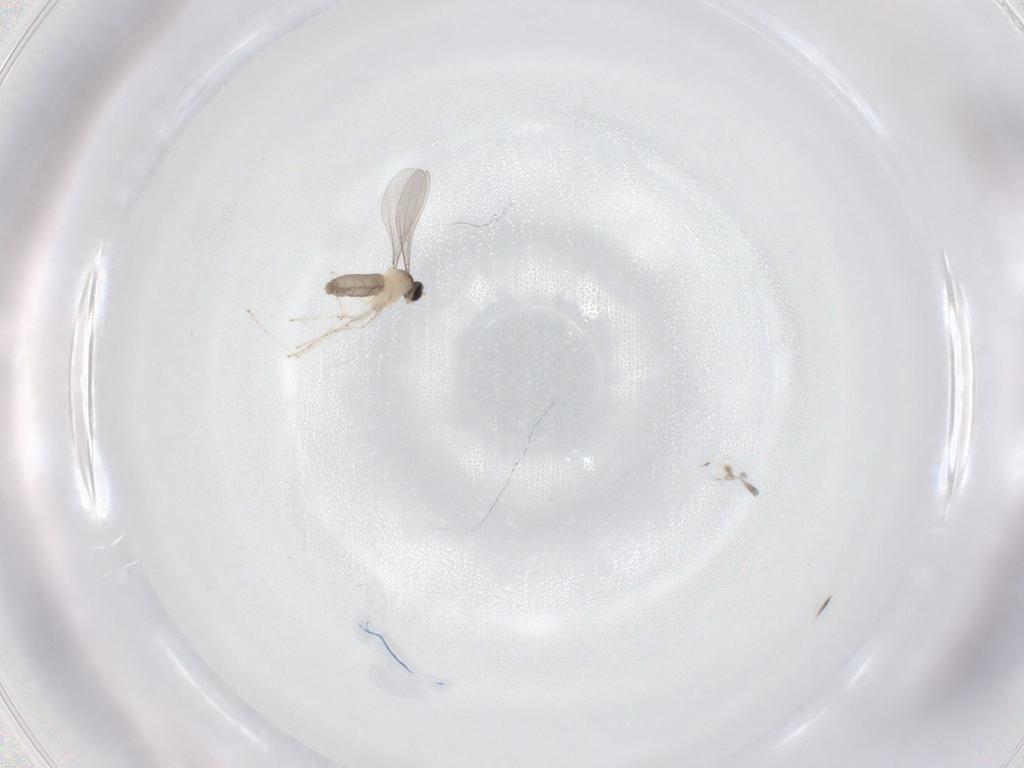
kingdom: Animalia
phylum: Arthropoda
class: Insecta
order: Diptera
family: Cecidomyiidae
